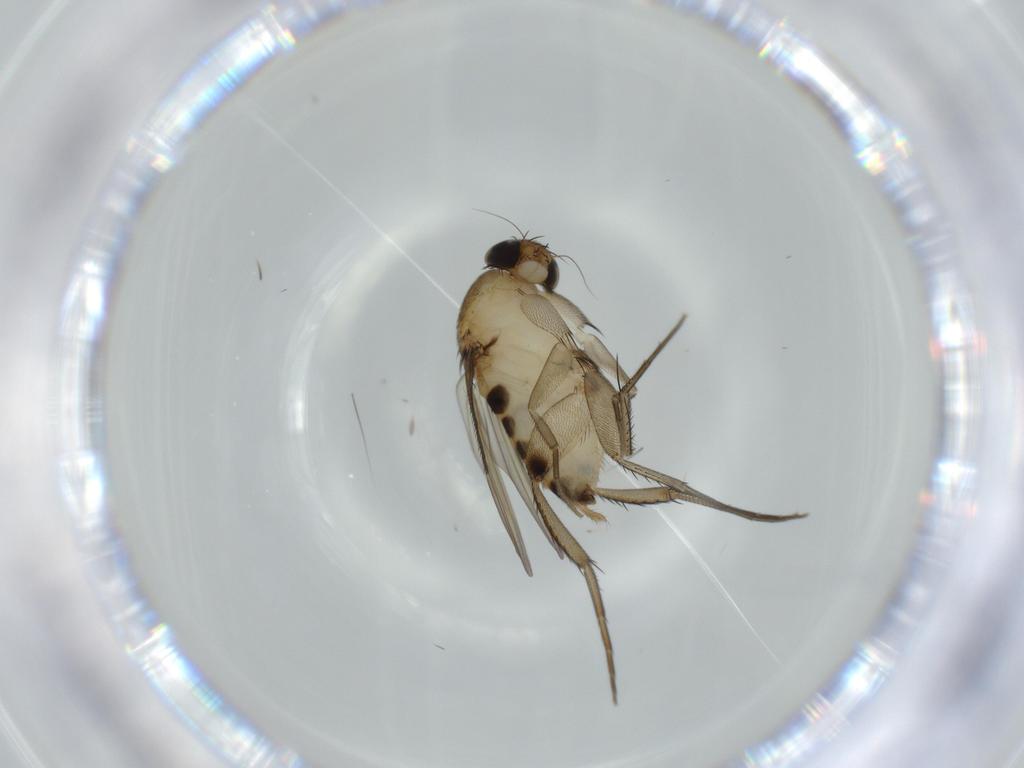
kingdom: Animalia
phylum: Arthropoda
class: Insecta
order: Diptera
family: Phoridae
